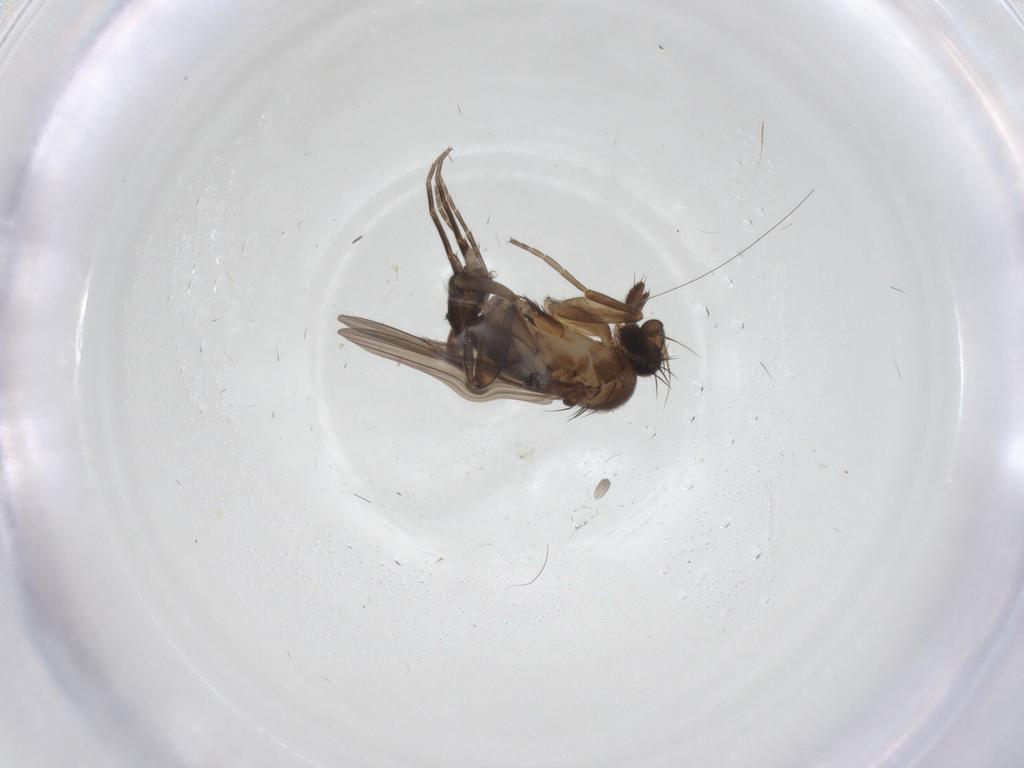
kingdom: Animalia
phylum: Arthropoda
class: Insecta
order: Diptera
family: Phoridae
